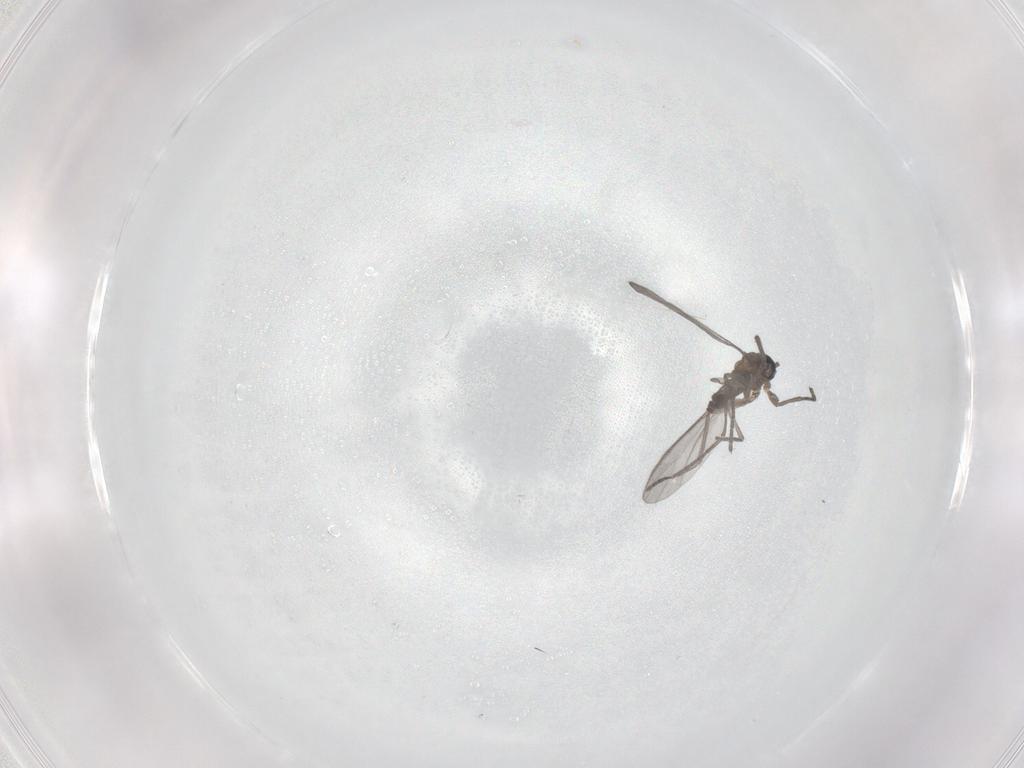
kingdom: Animalia
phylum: Arthropoda
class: Insecta
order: Diptera
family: Sciaridae
